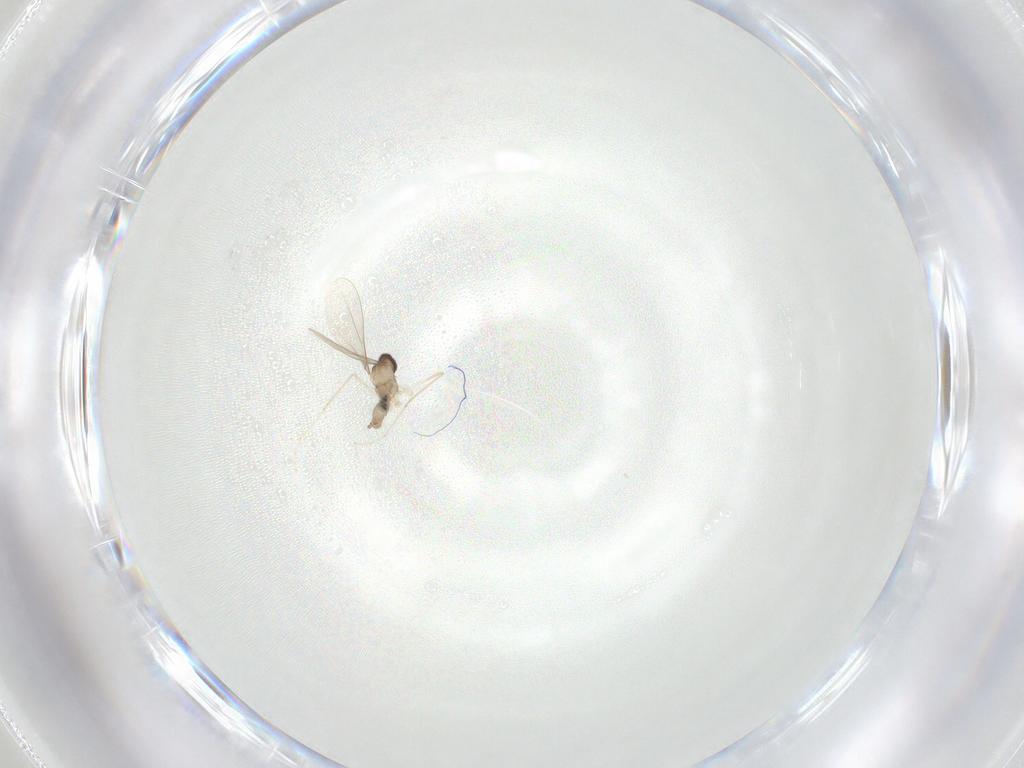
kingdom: Animalia
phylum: Arthropoda
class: Insecta
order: Diptera
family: Cecidomyiidae
